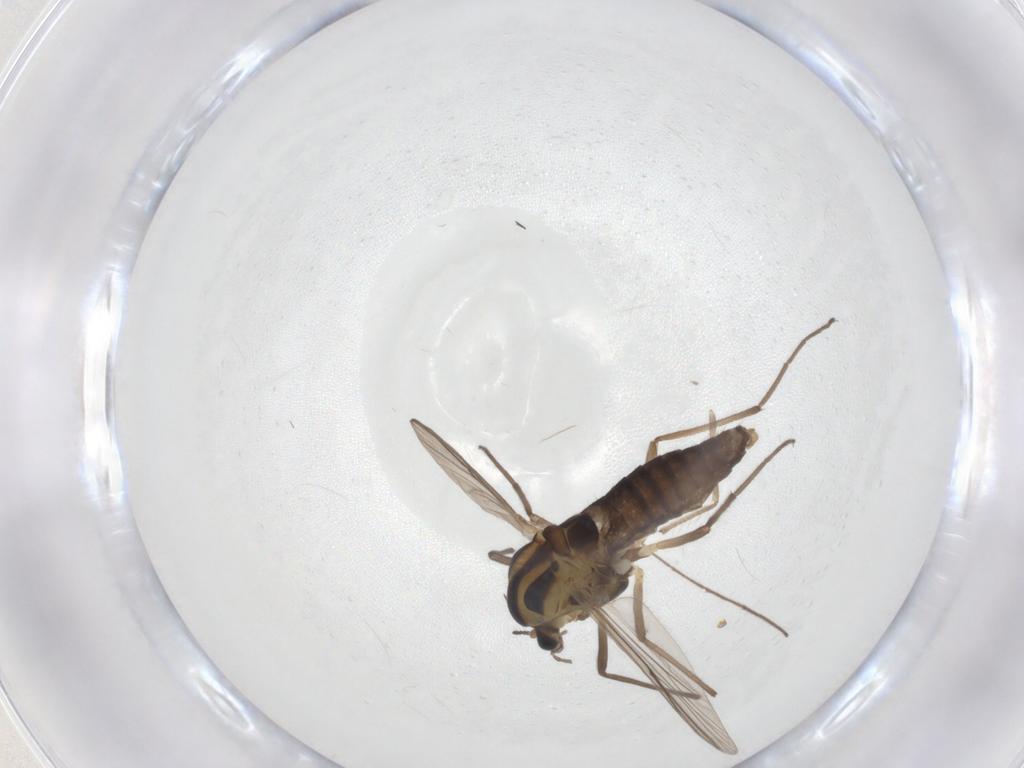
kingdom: Animalia
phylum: Arthropoda
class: Insecta
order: Diptera
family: Chironomidae
